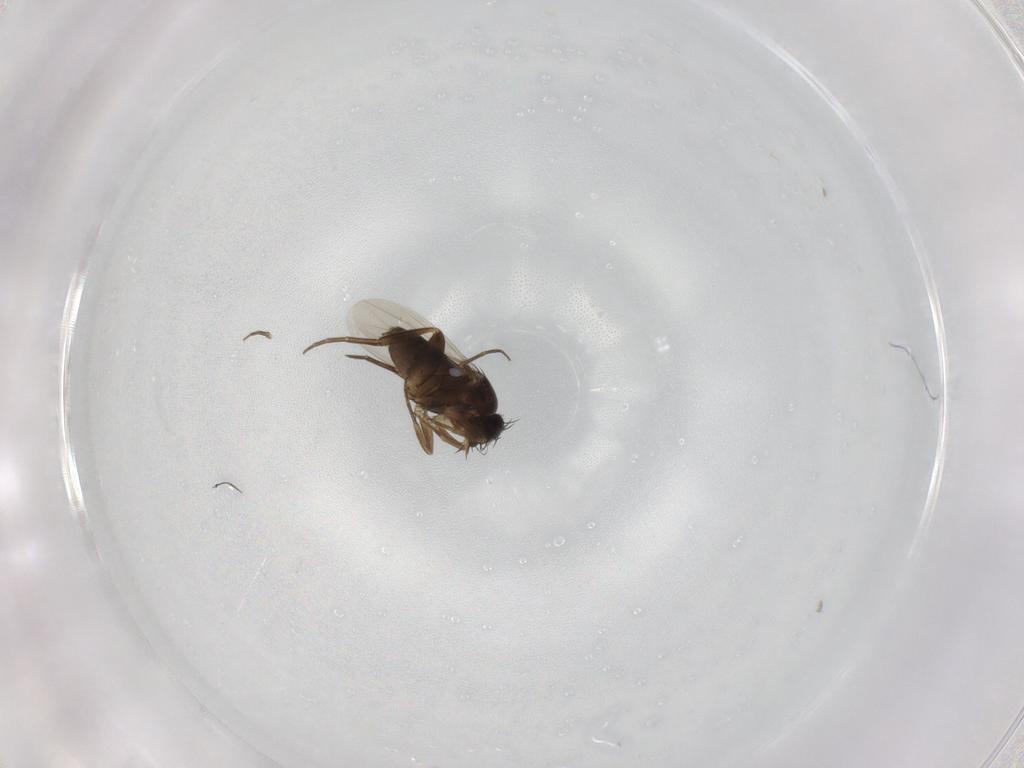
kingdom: Animalia
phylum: Arthropoda
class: Insecta
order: Diptera
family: Phoridae
